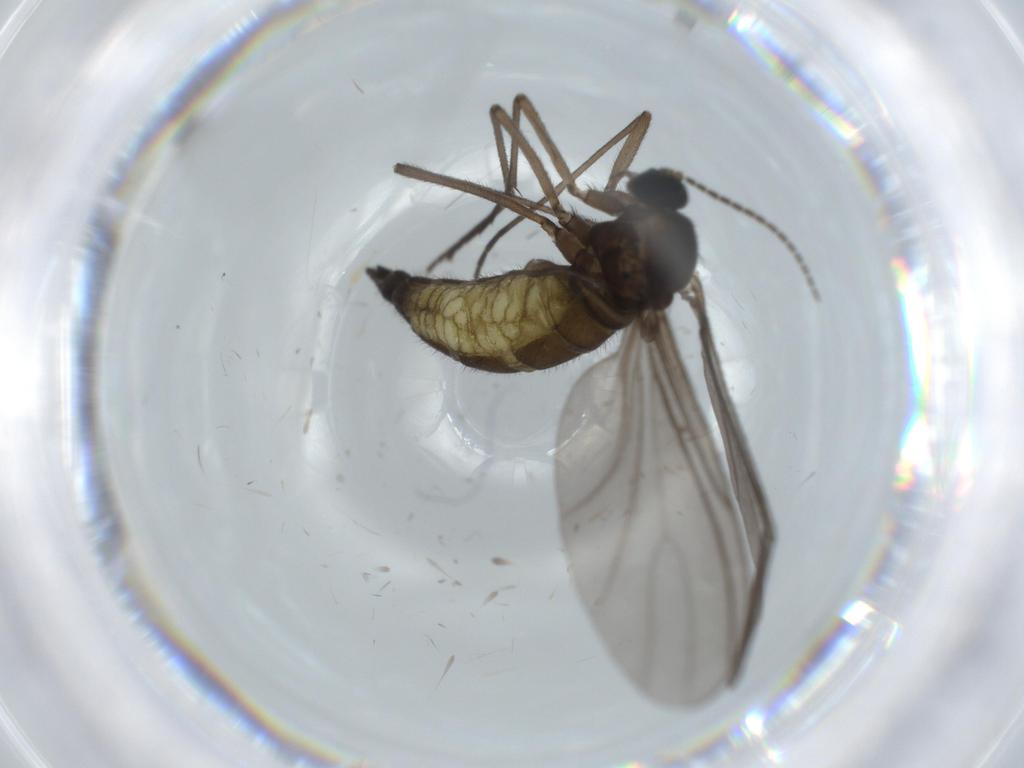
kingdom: Animalia
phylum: Arthropoda
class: Insecta
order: Diptera
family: Sciaridae
